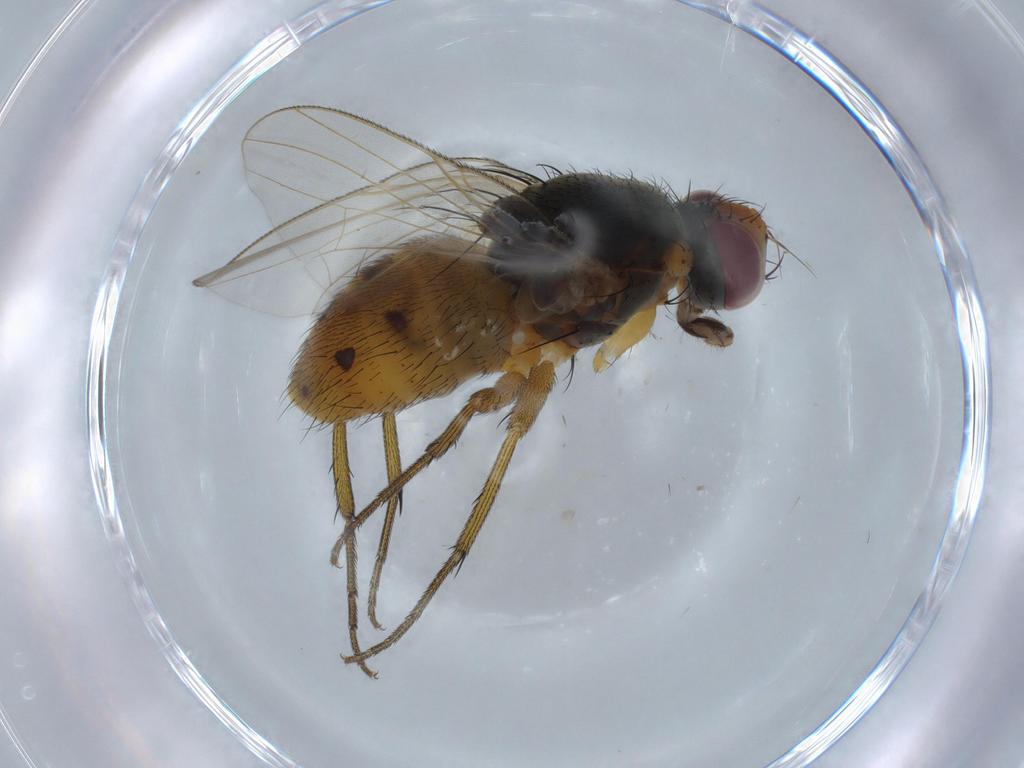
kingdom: Animalia
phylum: Arthropoda
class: Insecta
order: Diptera
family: Muscidae
